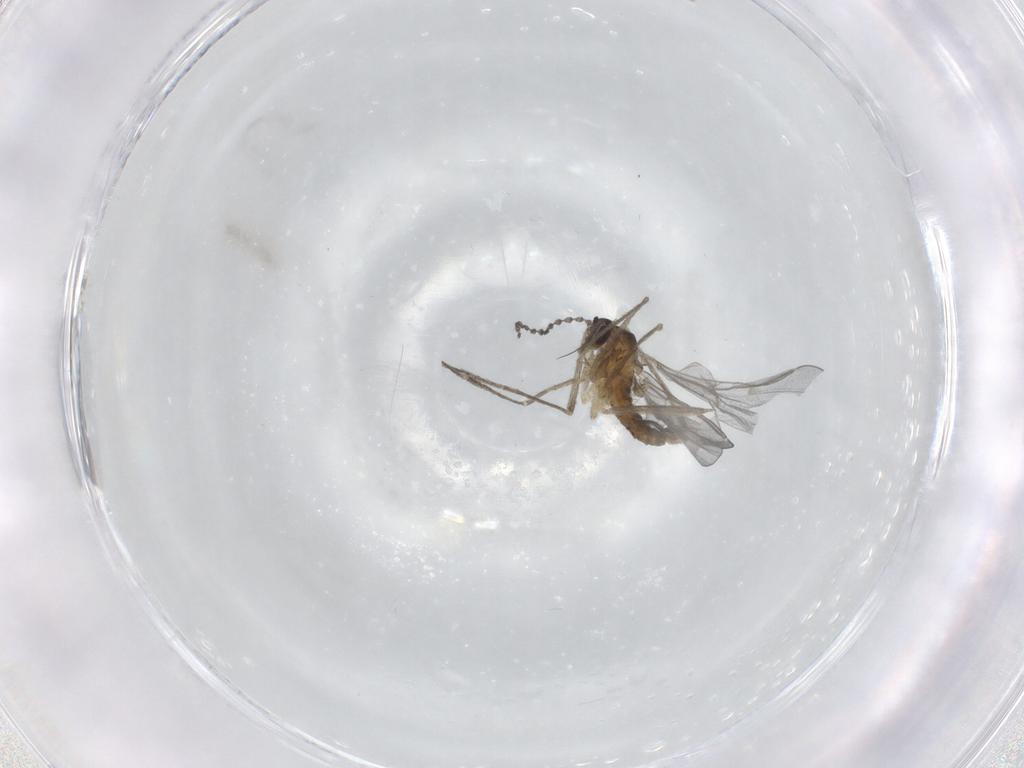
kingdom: Animalia
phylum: Arthropoda
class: Insecta
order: Diptera
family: Cecidomyiidae
